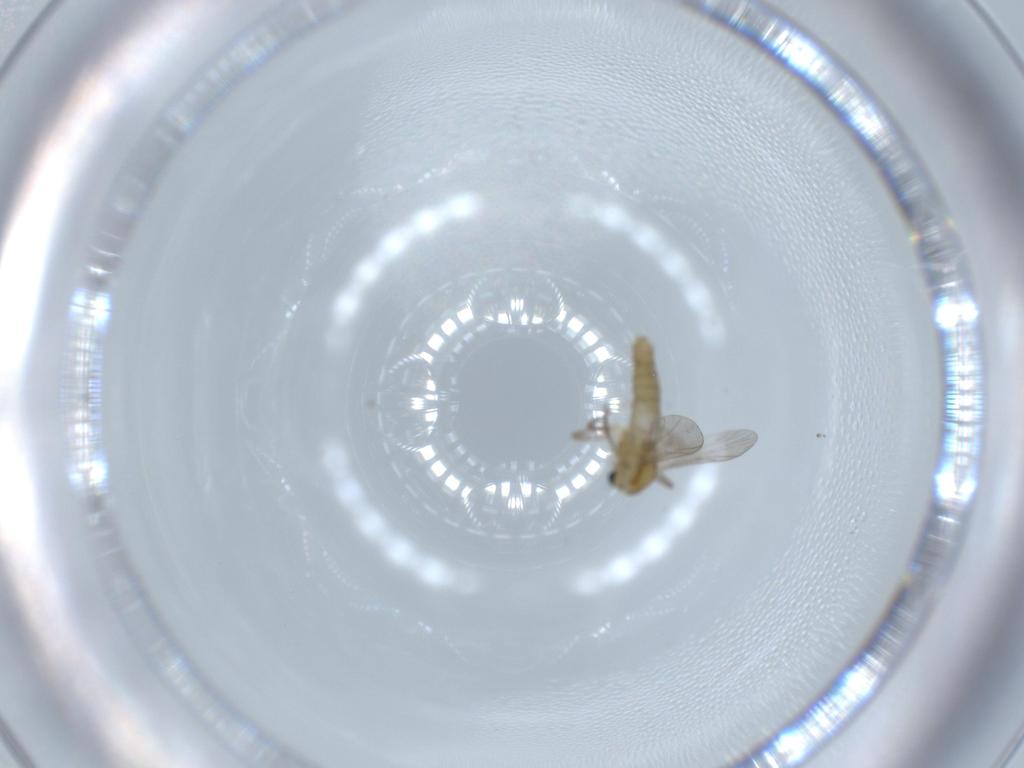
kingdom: Animalia
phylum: Arthropoda
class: Insecta
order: Diptera
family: Chironomidae
